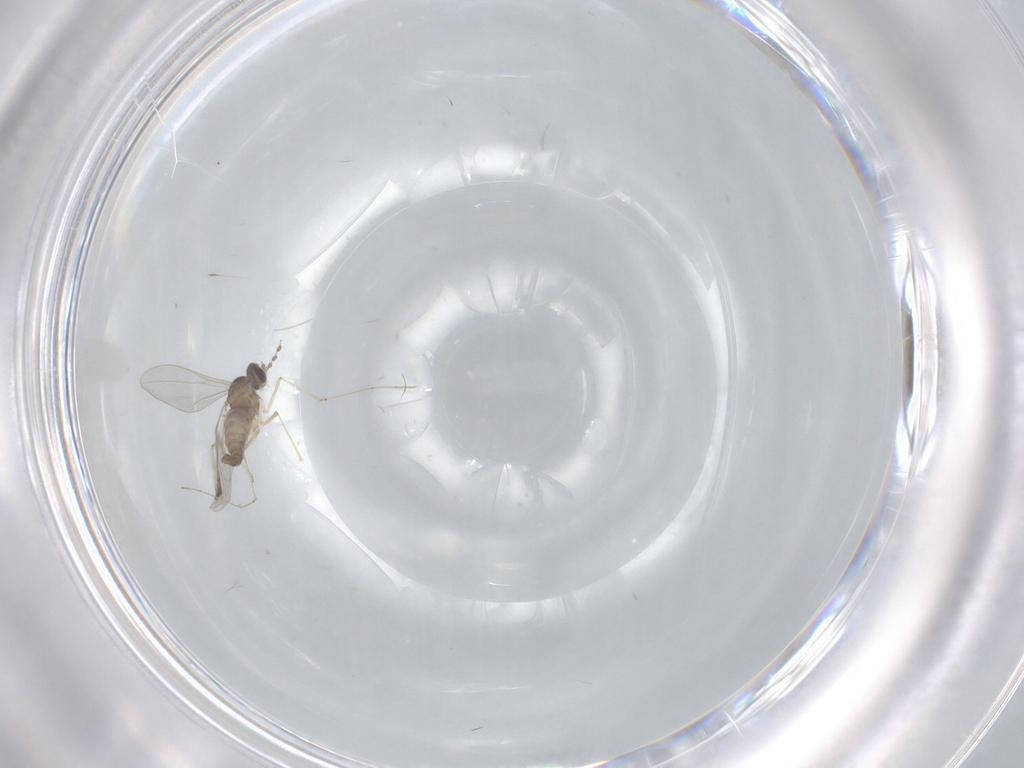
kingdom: Animalia
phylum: Arthropoda
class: Insecta
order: Diptera
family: Cecidomyiidae
